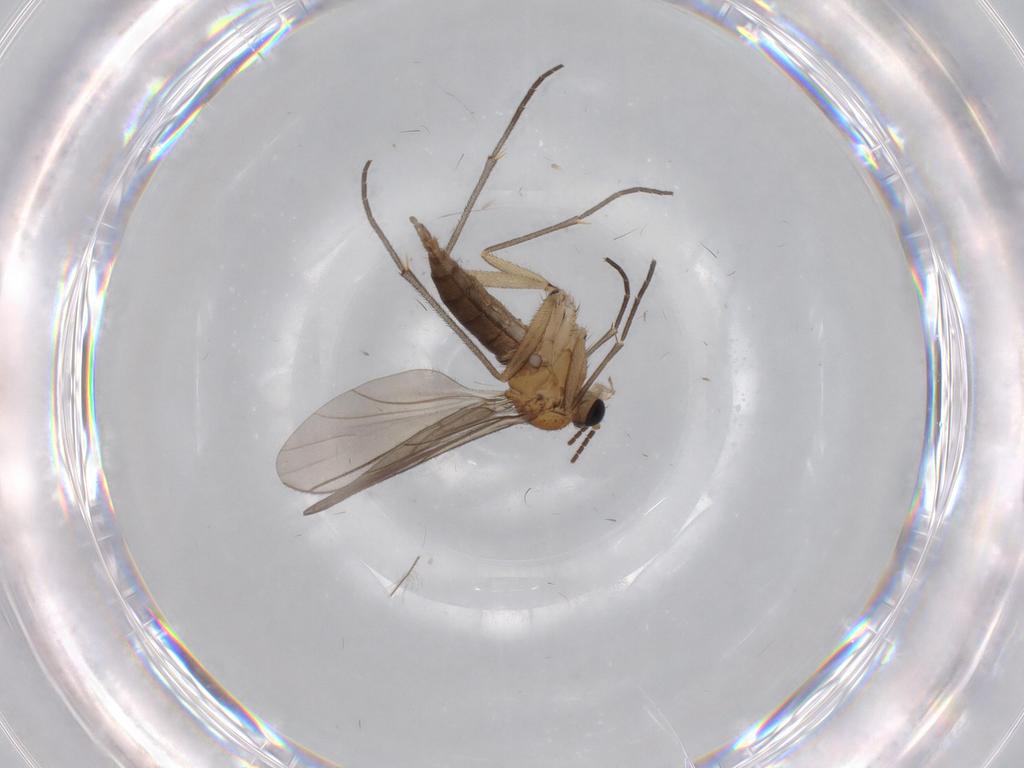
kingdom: Animalia
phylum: Arthropoda
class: Insecta
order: Diptera
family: Sciaridae
